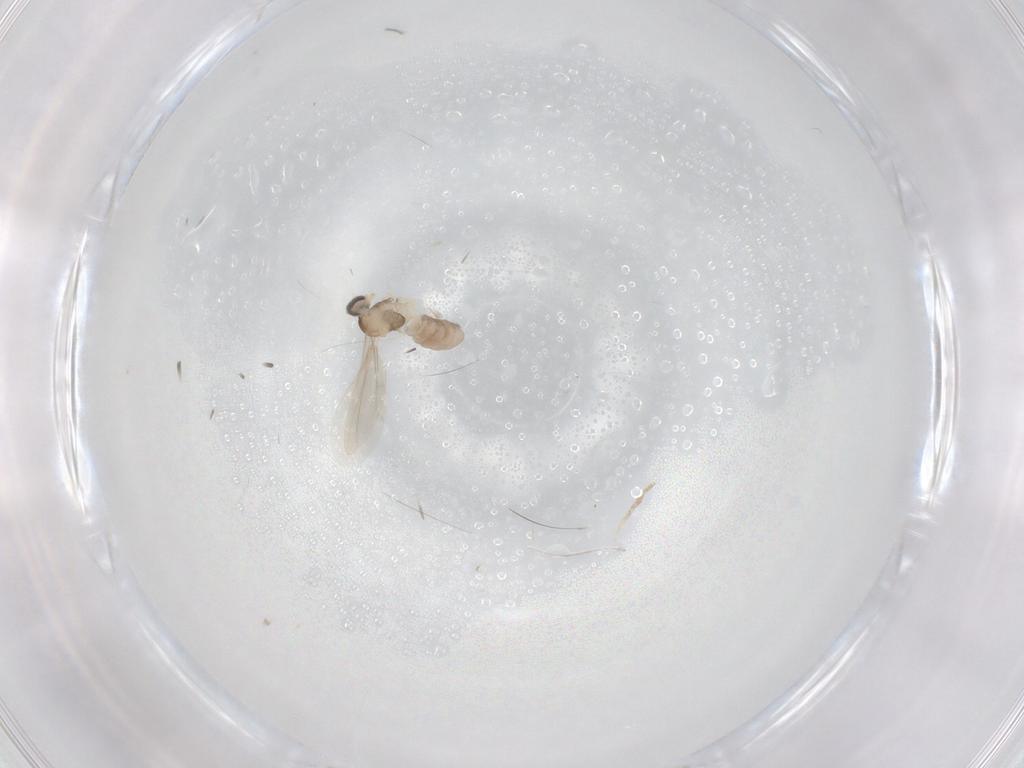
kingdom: Animalia
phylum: Arthropoda
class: Insecta
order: Diptera
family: Cecidomyiidae
